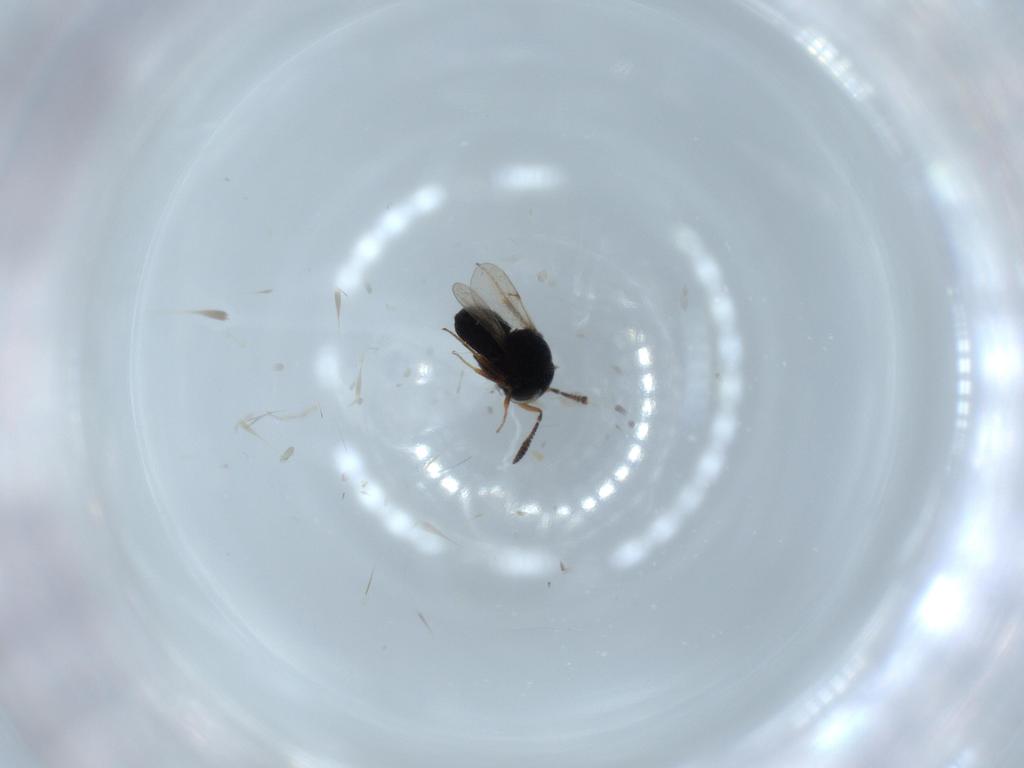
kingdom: Animalia
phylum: Arthropoda
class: Insecta
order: Hymenoptera
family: Scelionidae
